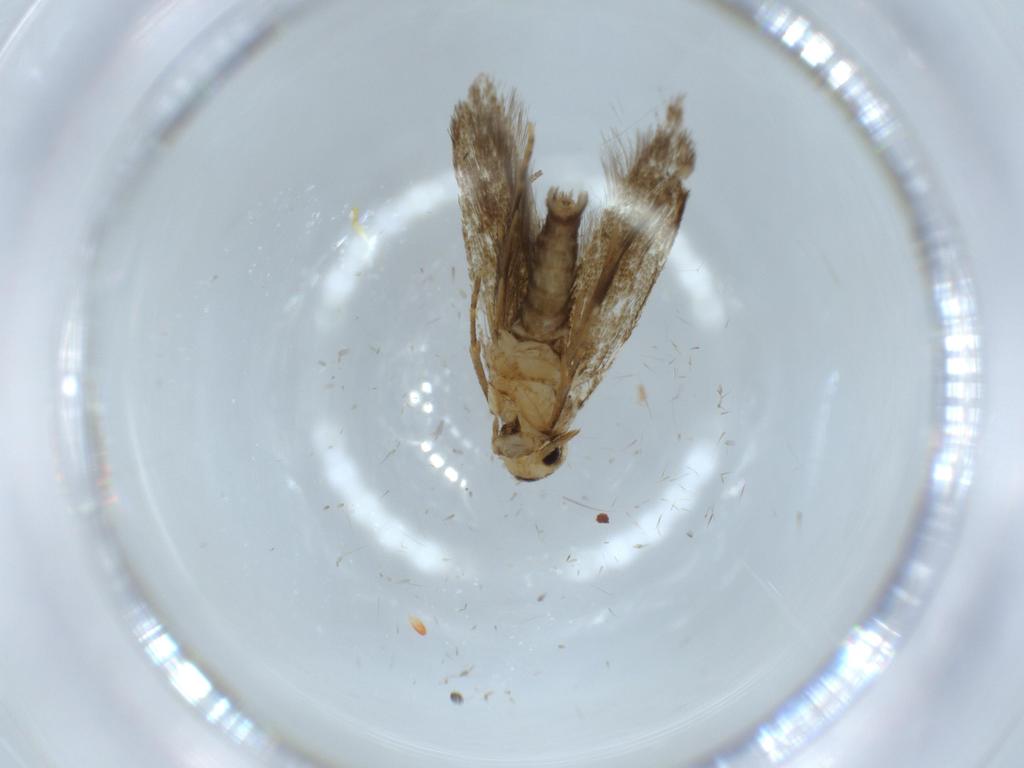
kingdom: Animalia
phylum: Arthropoda
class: Insecta
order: Lepidoptera
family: Tineidae
